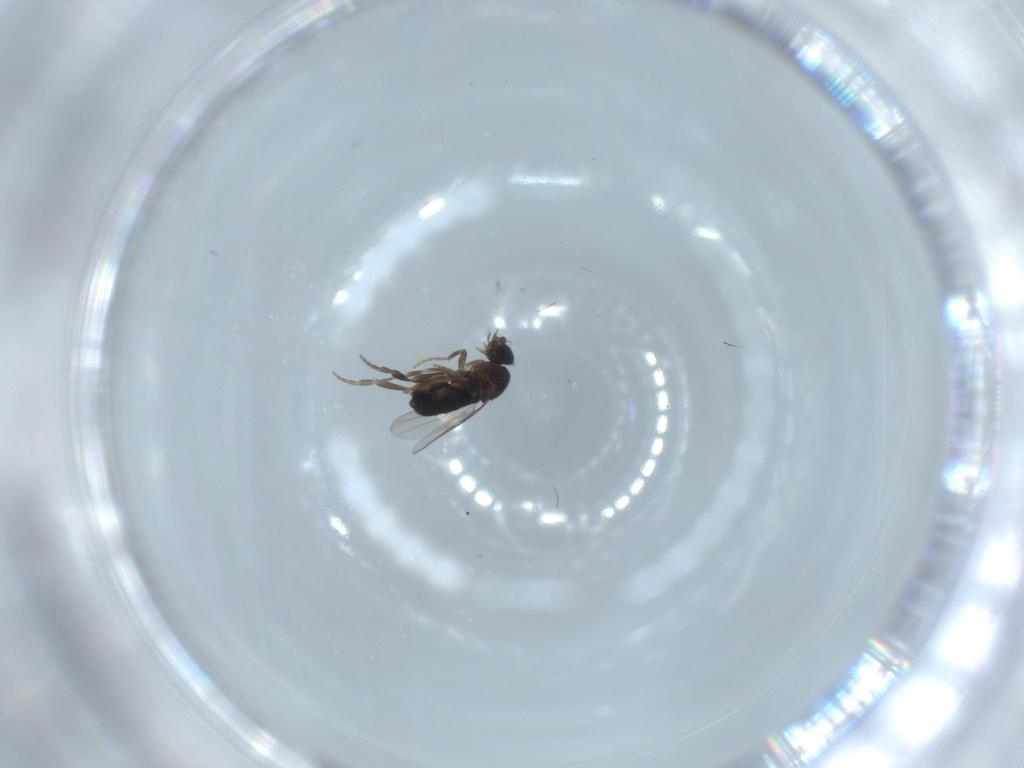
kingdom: Animalia
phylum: Arthropoda
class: Insecta
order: Diptera
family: Phoridae
